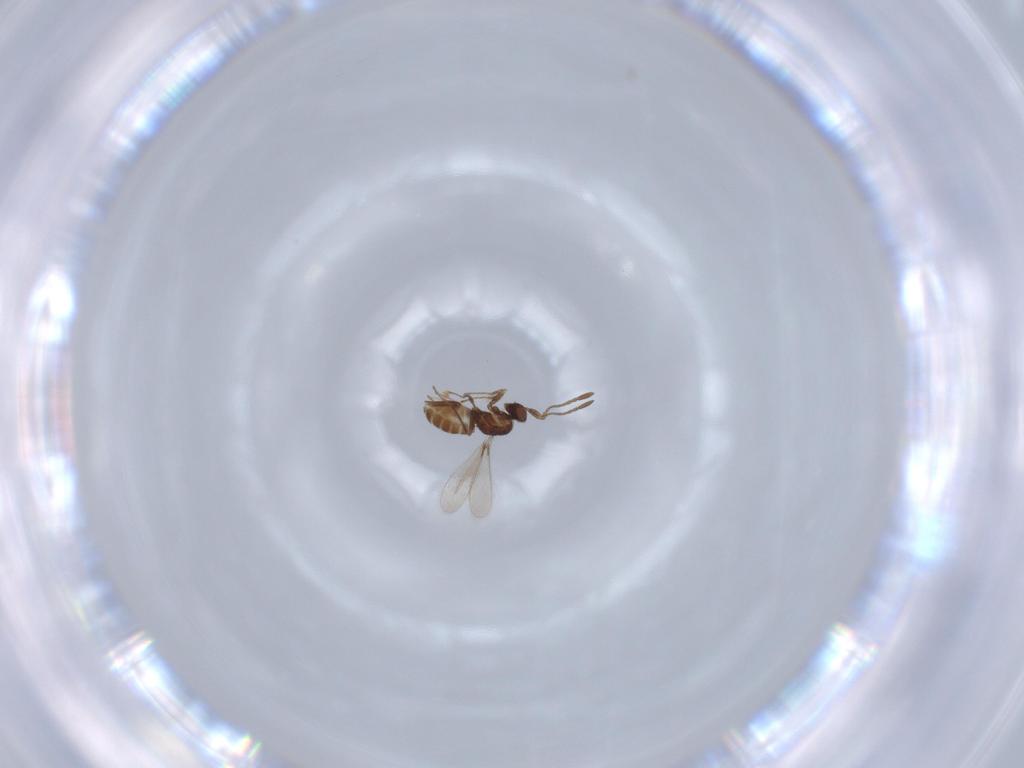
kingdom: Animalia
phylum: Arthropoda
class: Insecta
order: Hymenoptera
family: Mymaridae
